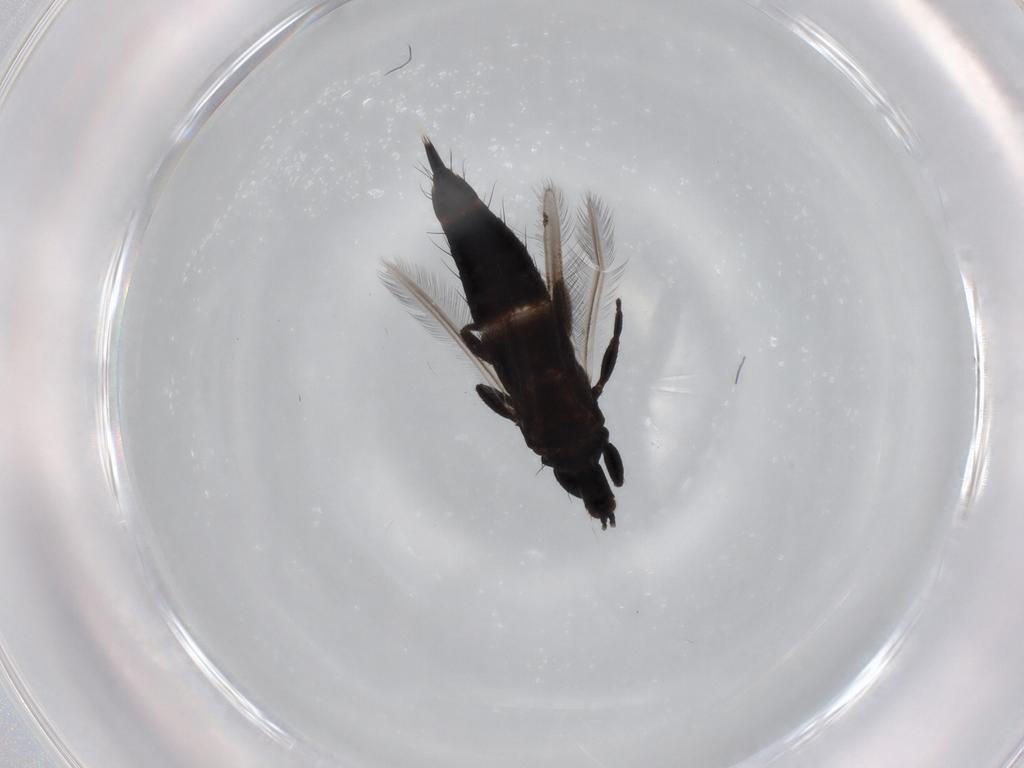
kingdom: Animalia
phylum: Arthropoda
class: Insecta
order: Thysanoptera
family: Phlaeothripidae
